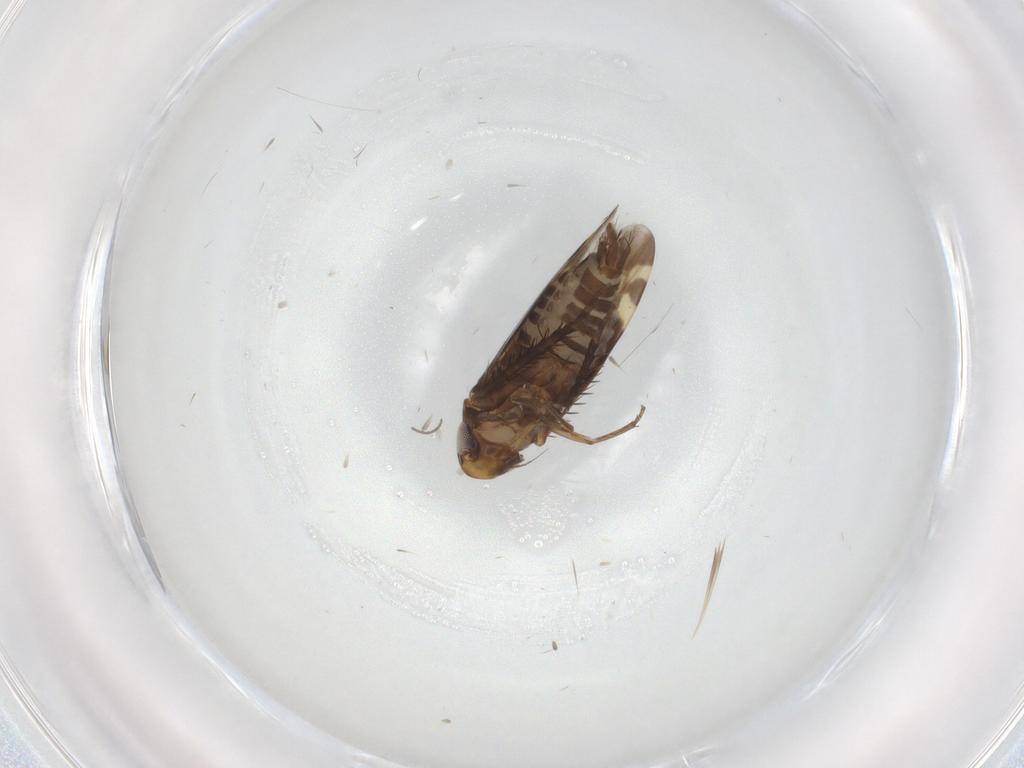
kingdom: Animalia
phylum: Arthropoda
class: Insecta
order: Hemiptera
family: Cicadellidae
